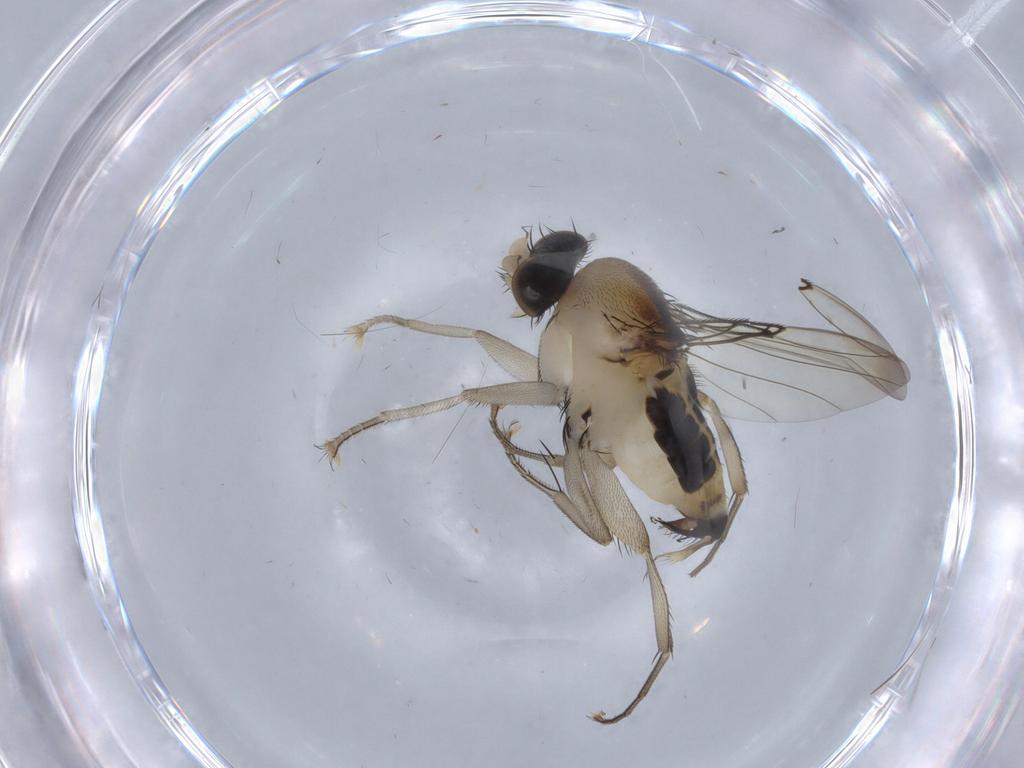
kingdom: Animalia
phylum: Arthropoda
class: Insecta
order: Diptera
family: Phoridae
